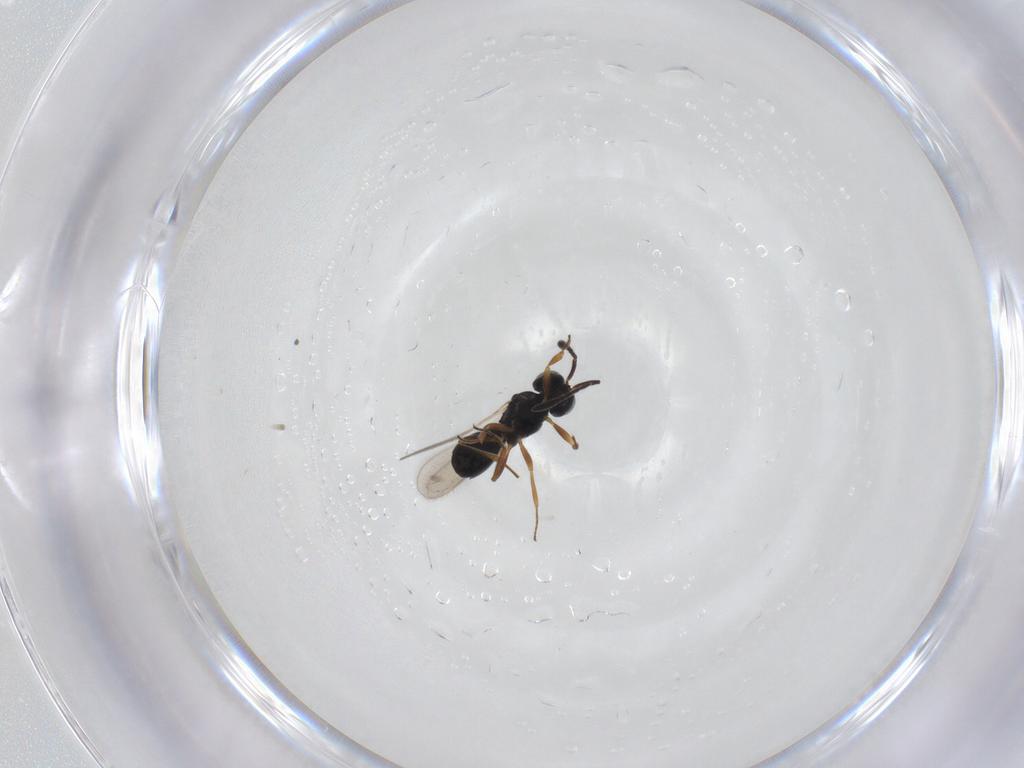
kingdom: Animalia
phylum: Arthropoda
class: Insecta
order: Hymenoptera
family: Scelionidae
